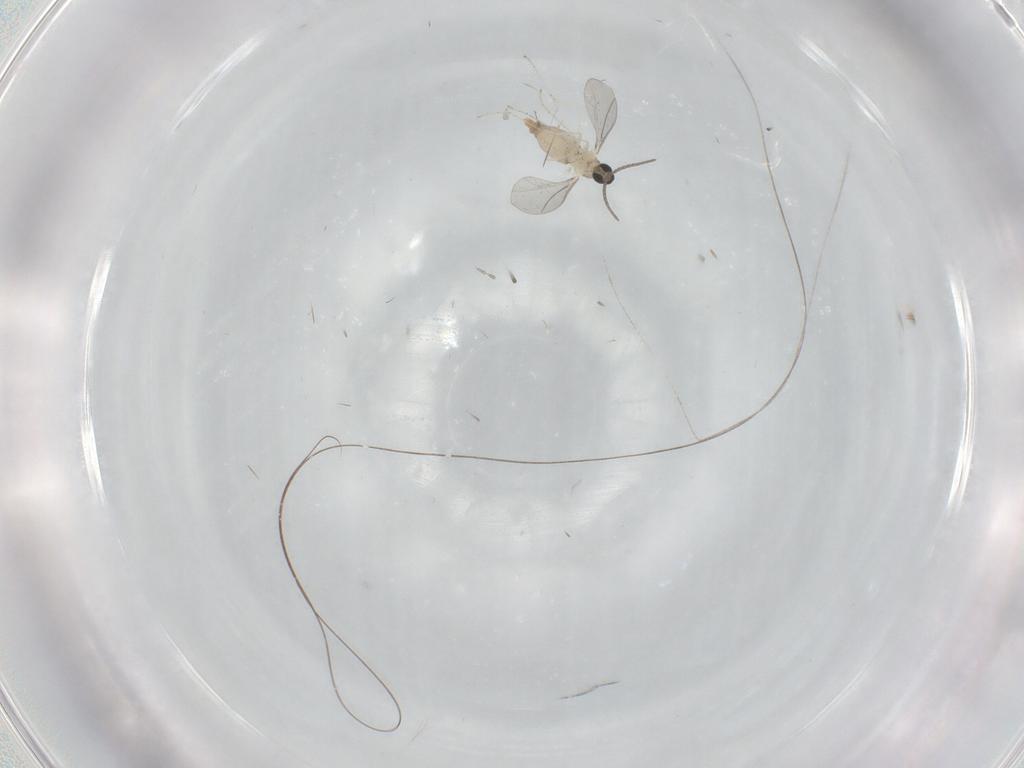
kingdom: Animalia
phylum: Arthropoda
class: Insecta
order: Diptera
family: Cecidomyiidae
